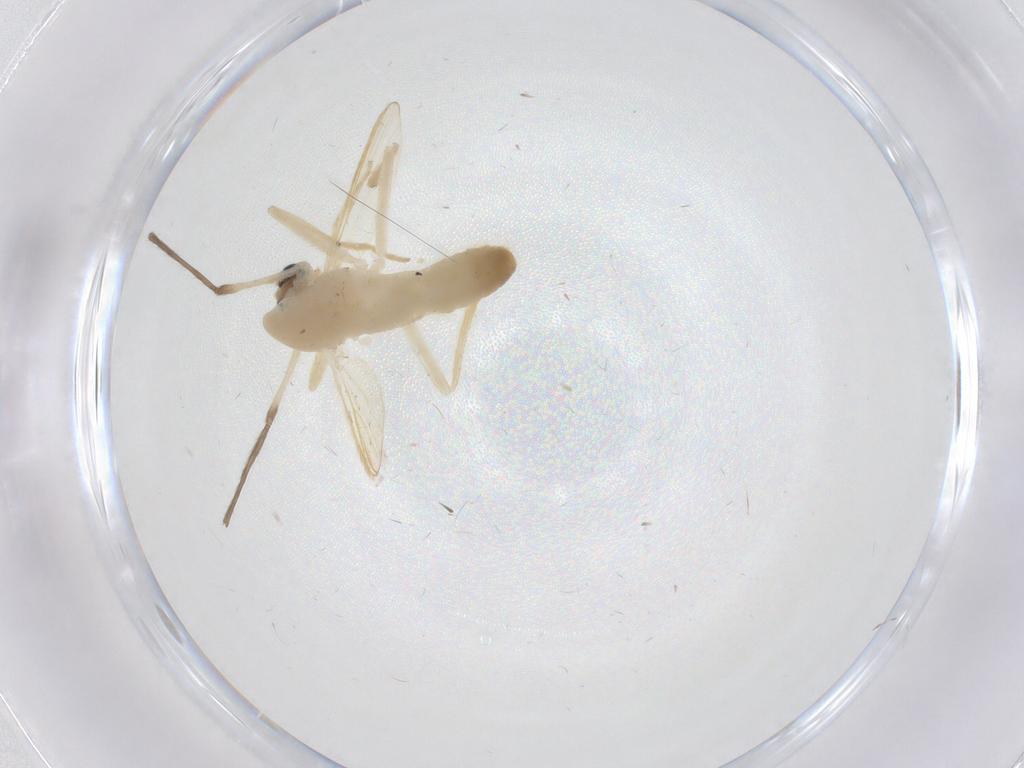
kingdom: Animalia
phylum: Arthropoda
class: Insecta
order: Diptera
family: Chironomidae
